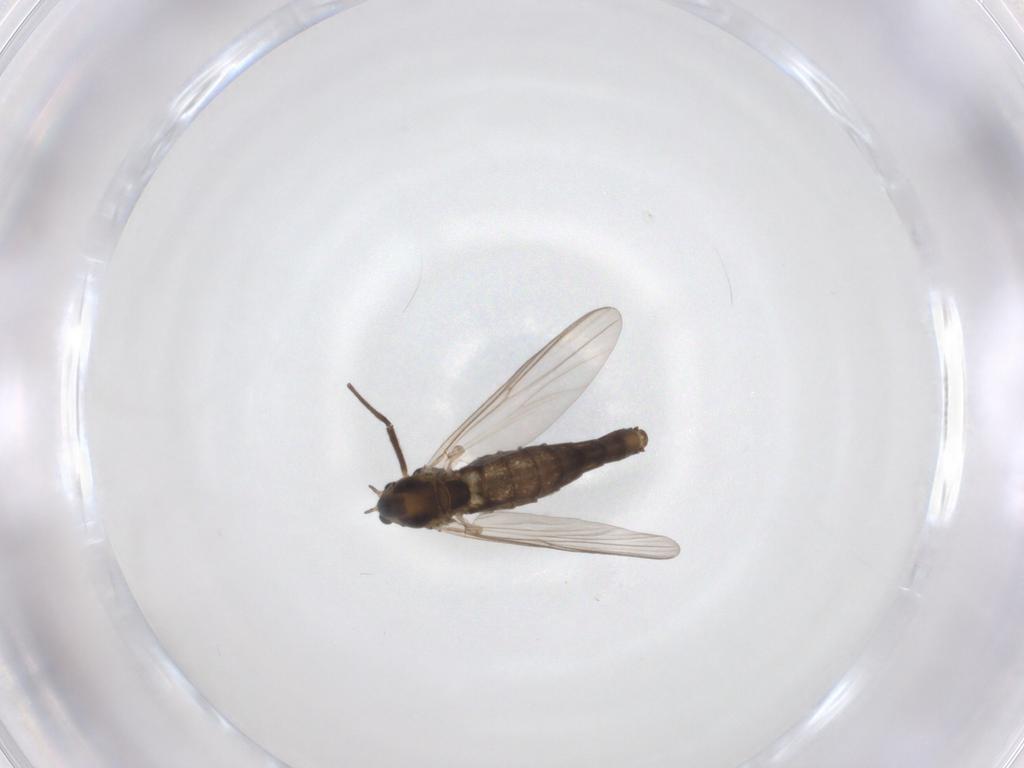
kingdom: Animalia
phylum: Arthropoda
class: Insecta
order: Diptera
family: Chironomidae
